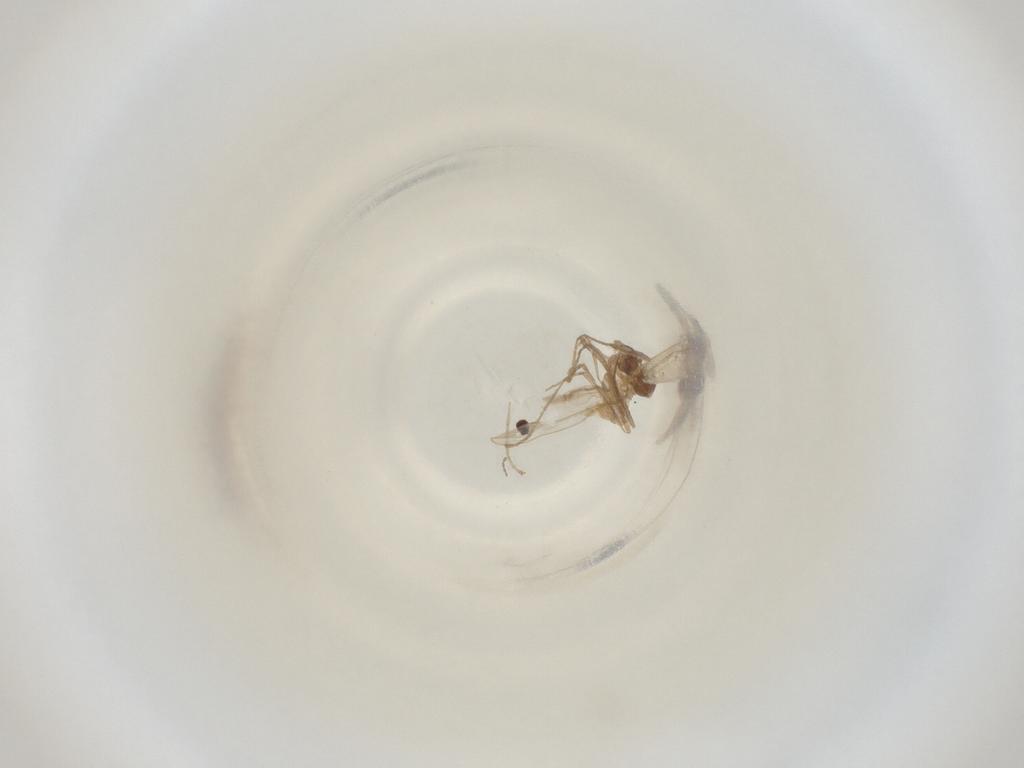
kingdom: Animalia
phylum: Arthropoda
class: Insecta
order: Diptera
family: Cecidomyiidae
